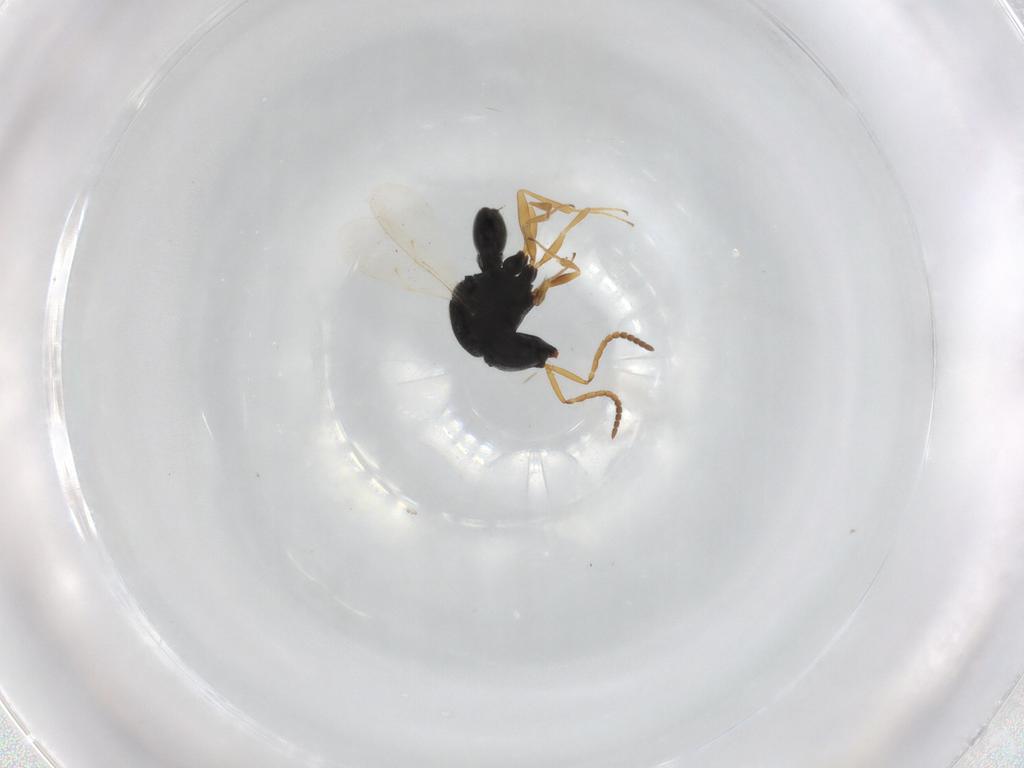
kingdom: Animalia
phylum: Arthropoda
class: Insecta
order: Hymenoptera
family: Scelionidae
